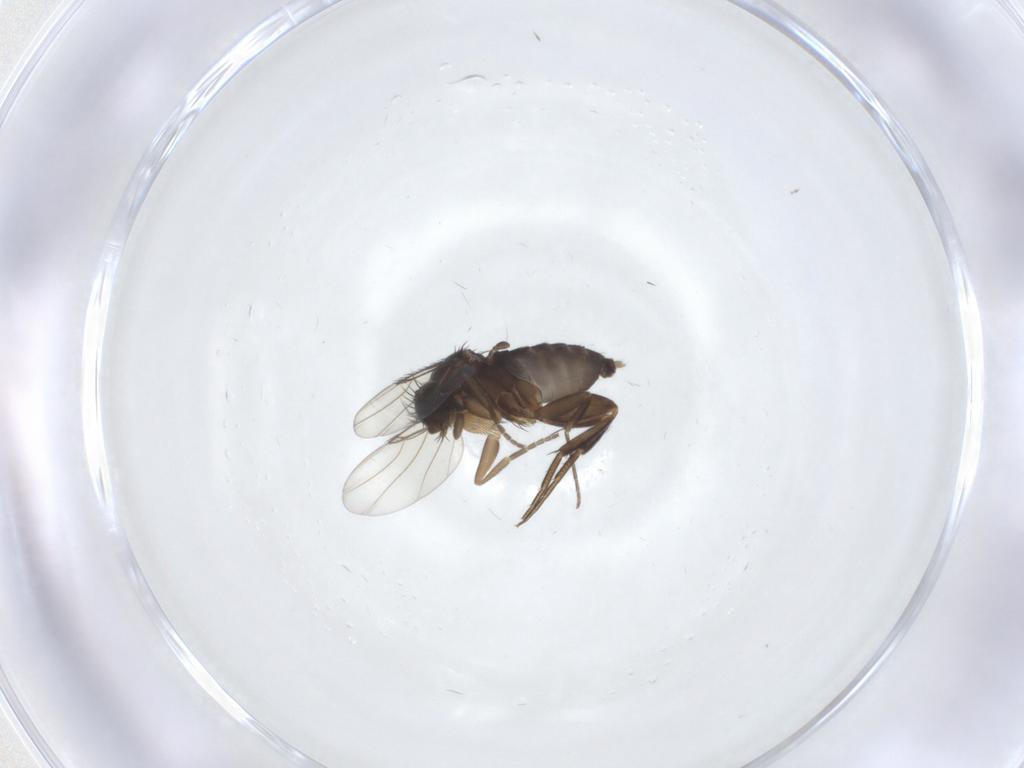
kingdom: Animalia
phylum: Arthropoda
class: Insecta
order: Diptera
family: Phoridae
